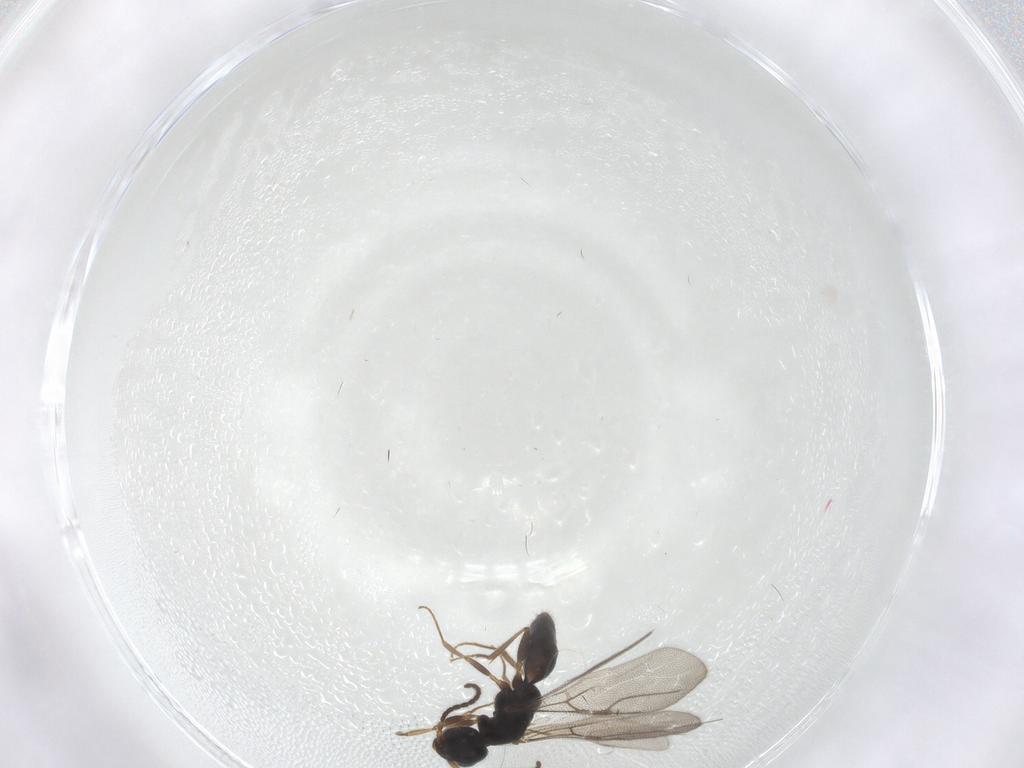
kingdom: Animalia
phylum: Arthropoda
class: Insecta
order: Hymenoptera
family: Bethylidae
